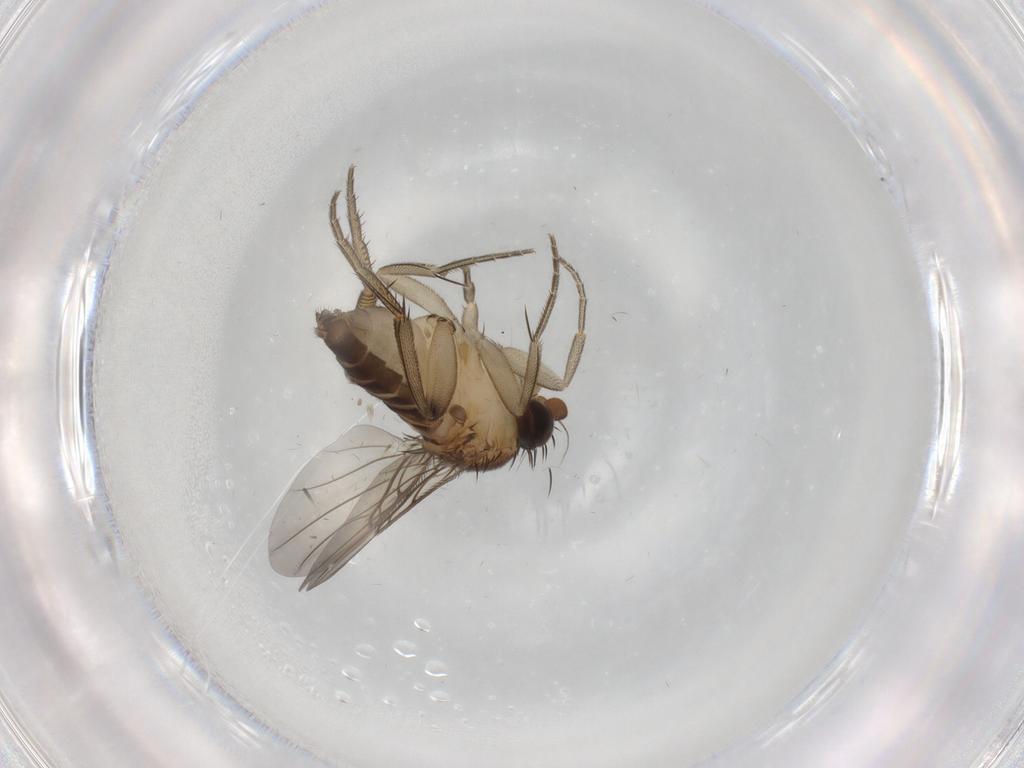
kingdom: Animalia
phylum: Arthropoda
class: Insecta
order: Diptera
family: Phoridae
